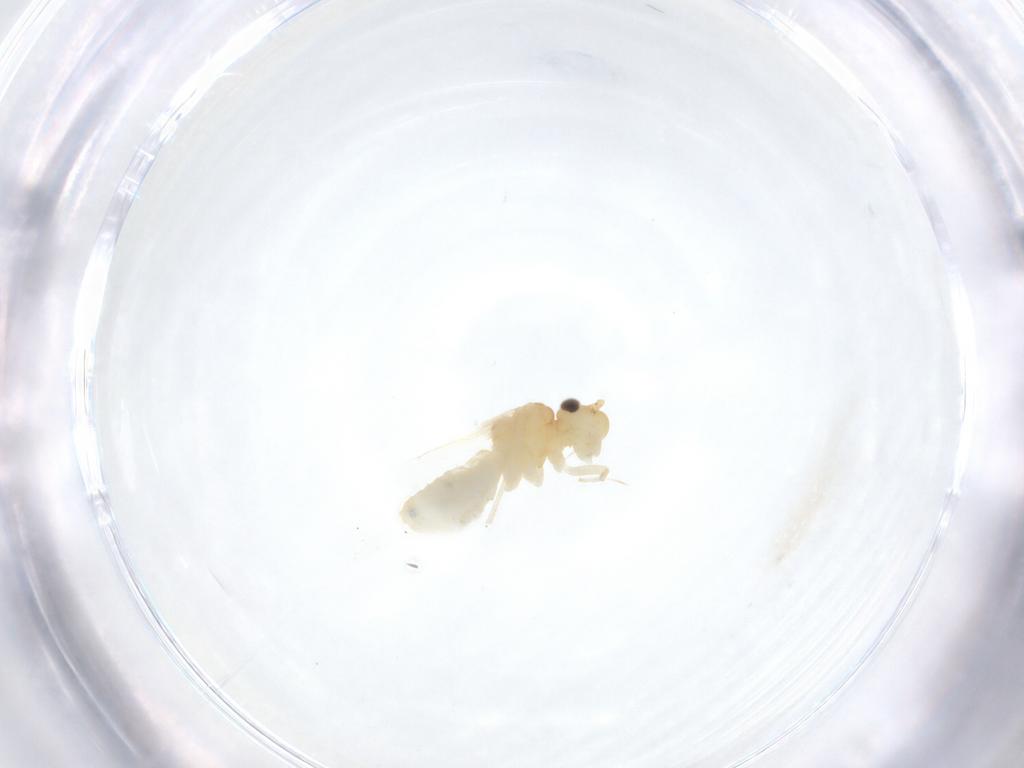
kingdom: Animalia
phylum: Arthropoda
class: Insecta
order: Psocodea
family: Caeciliusidae
